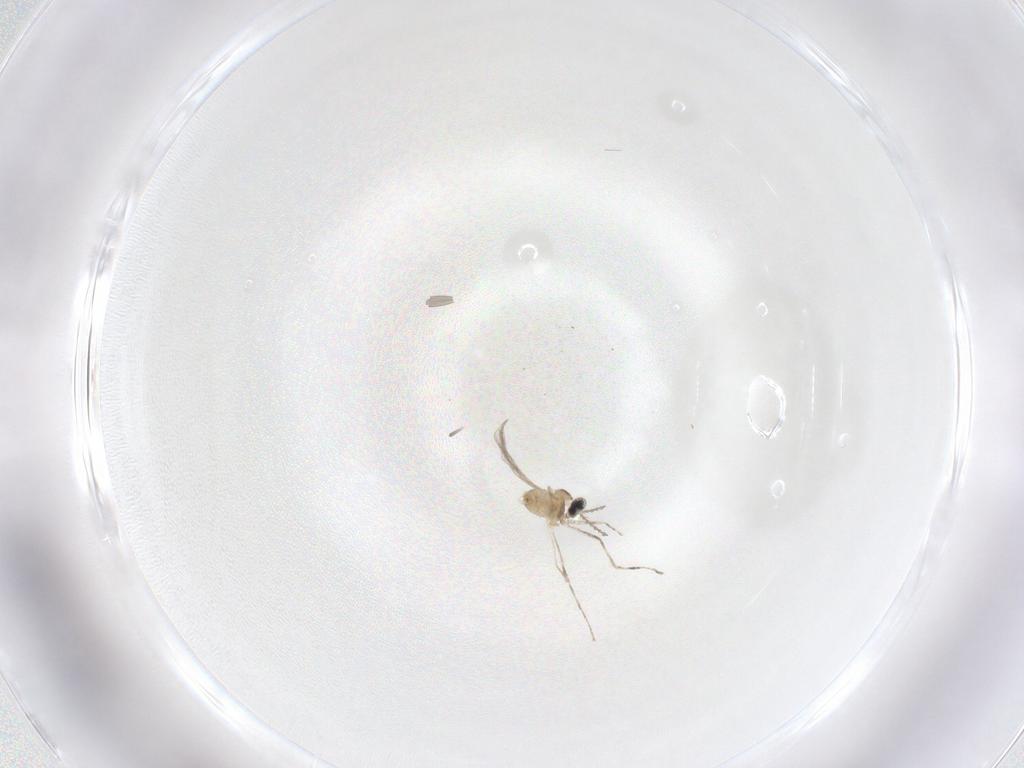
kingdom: Animalia
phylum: Arthropoda
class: Insecta
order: Diptera
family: Cecidomyiidae
